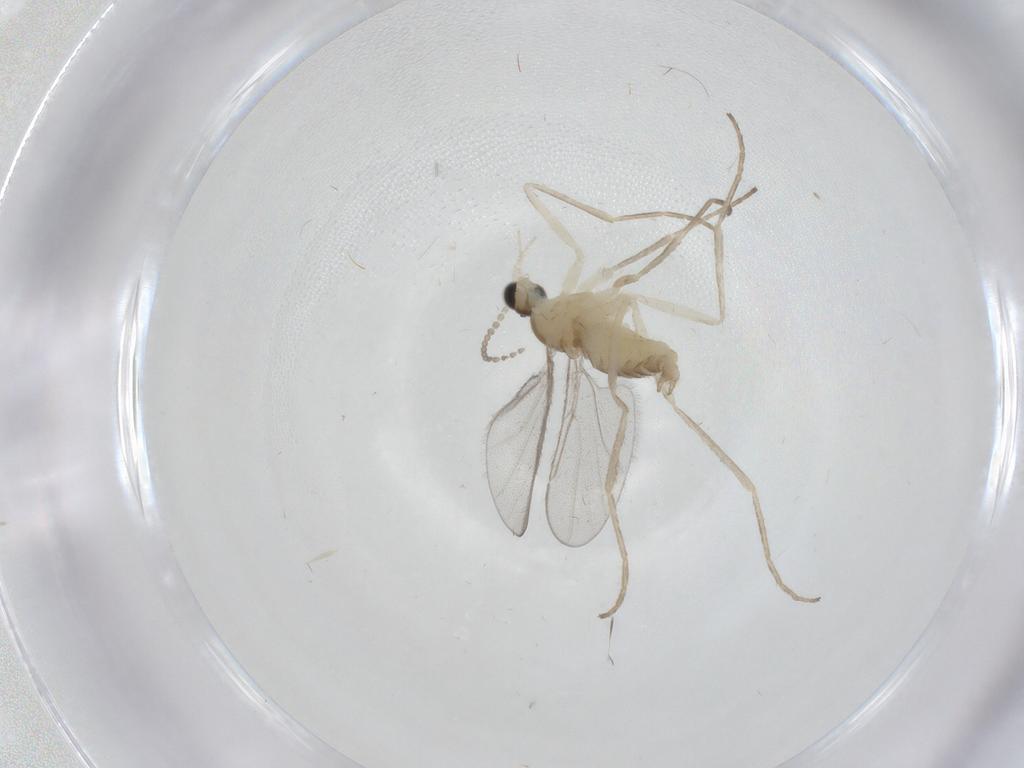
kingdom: Animalia
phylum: Arthropoda
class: Insecta
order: Diptera
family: Cecidomyiidae
